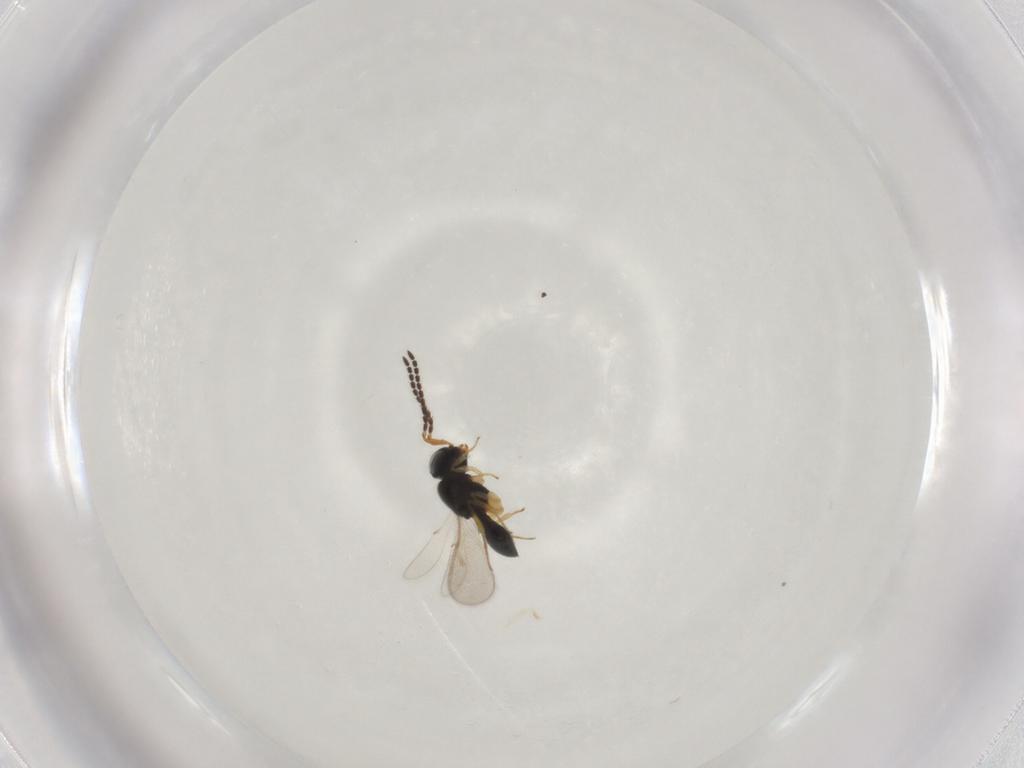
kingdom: Animalia
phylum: Arthropoda
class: Insecta
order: Hymenoptera
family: Scelionidae
